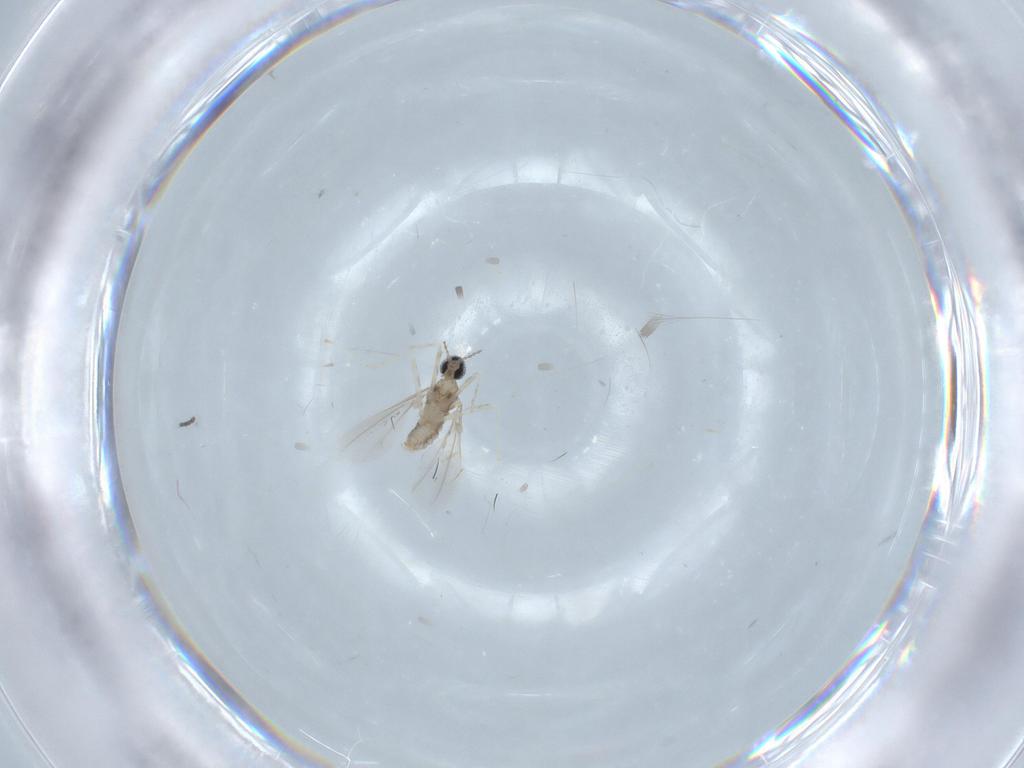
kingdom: Animalia
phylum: Arthropoda
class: Insecta
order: Diptera
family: Cecidomyiidae
